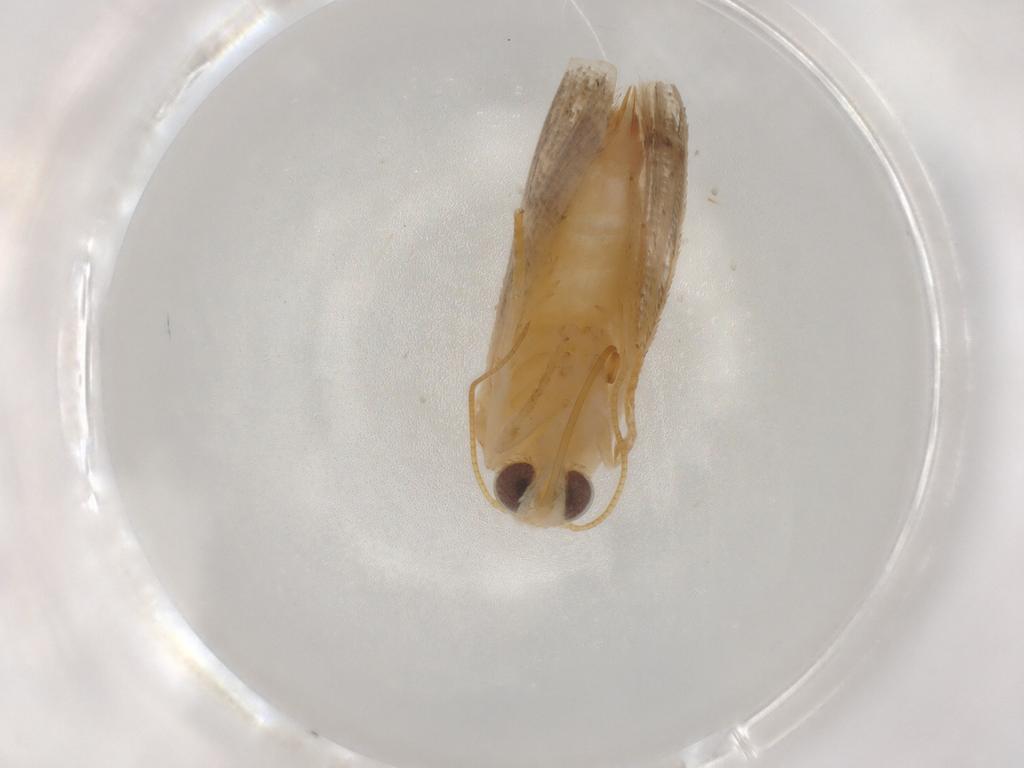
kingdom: Animalia
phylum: Arthropoda
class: Insecta
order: Lepidoptera
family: Noctuidae
